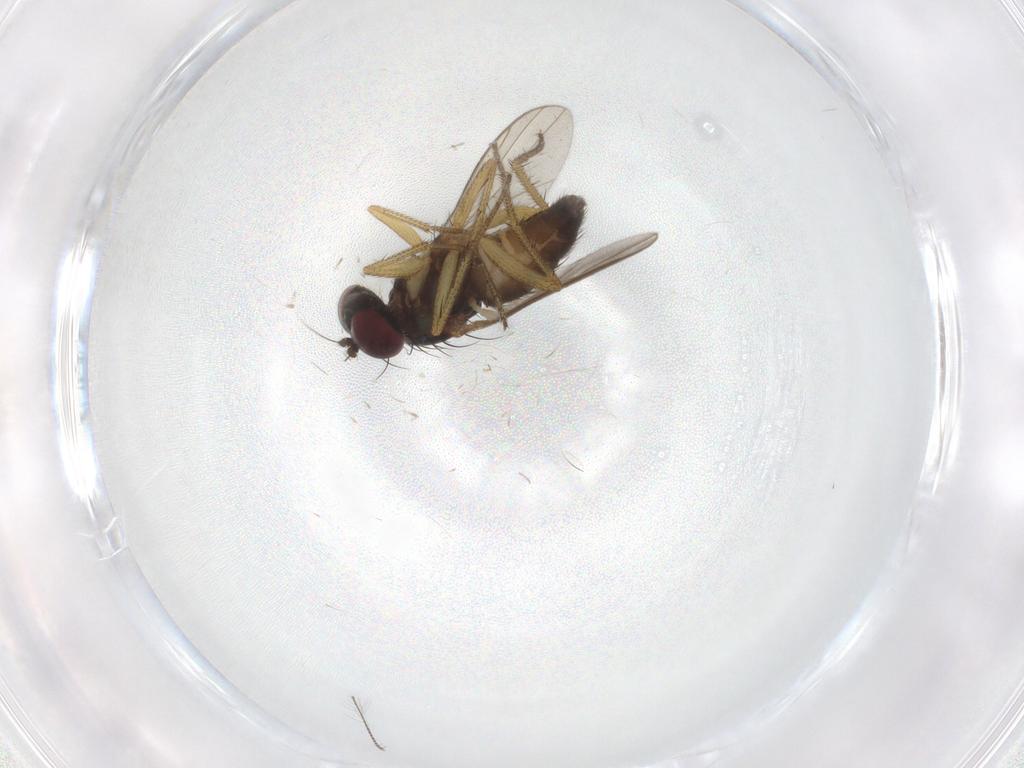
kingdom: Animalia
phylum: Arthropoda
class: Insecta
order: Diptera
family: Dolichopodidae
